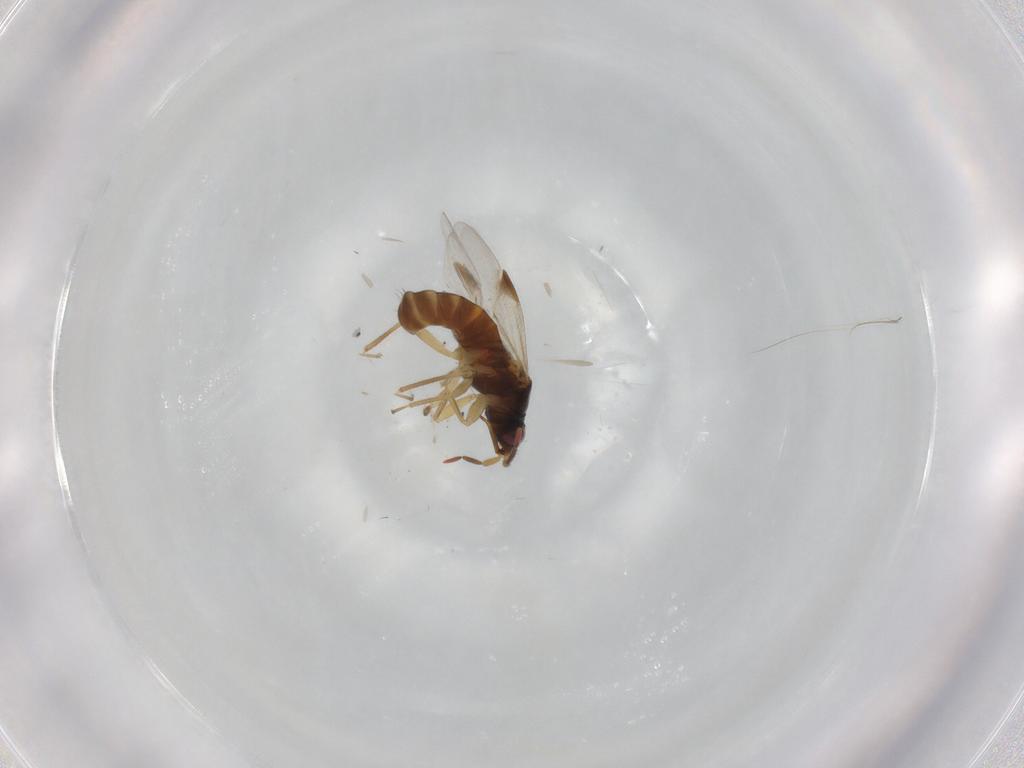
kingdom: Animalia
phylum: Arthropoda
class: Insecta
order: Hemiptera
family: Anthocoridae
